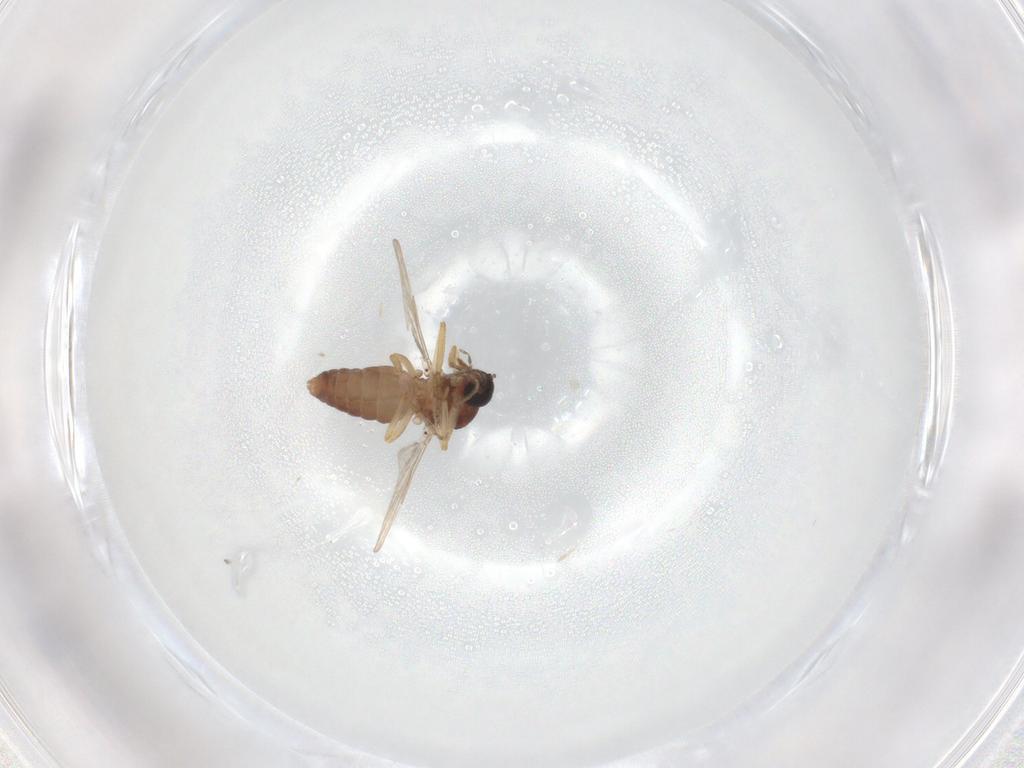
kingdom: Animalia
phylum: Arthropoda
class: Insecta
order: Diptera
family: Ceratopogonidae
